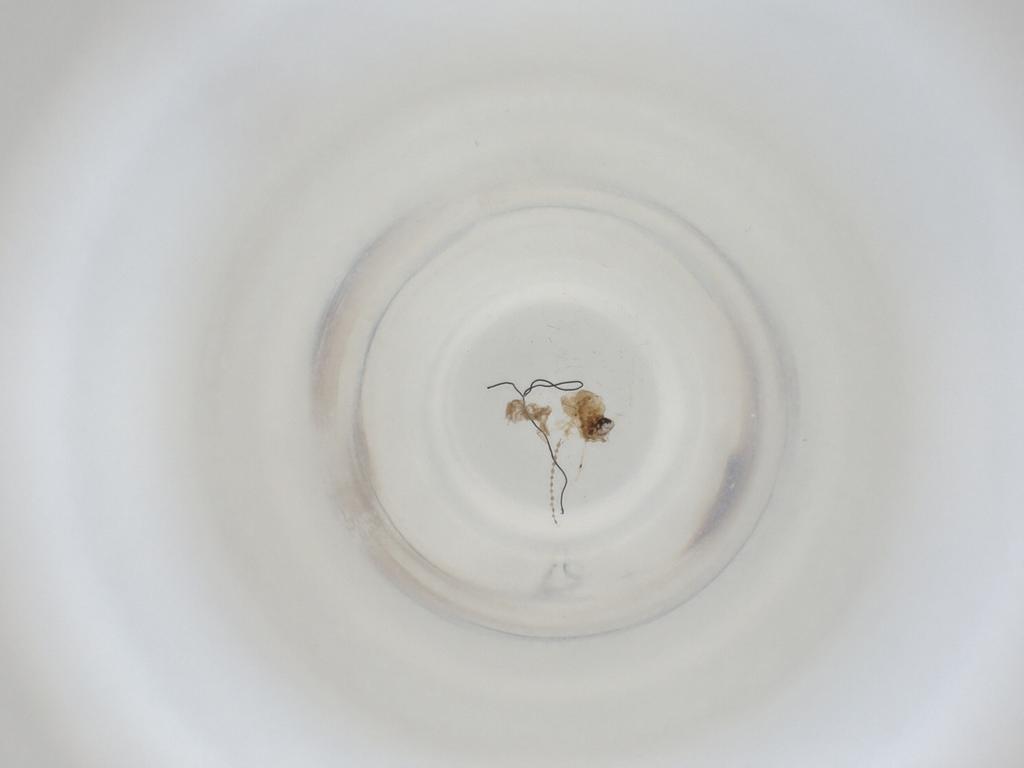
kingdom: Animalia
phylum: Arthropoda
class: Insecta
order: Diptera
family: Cecidomyiidae
